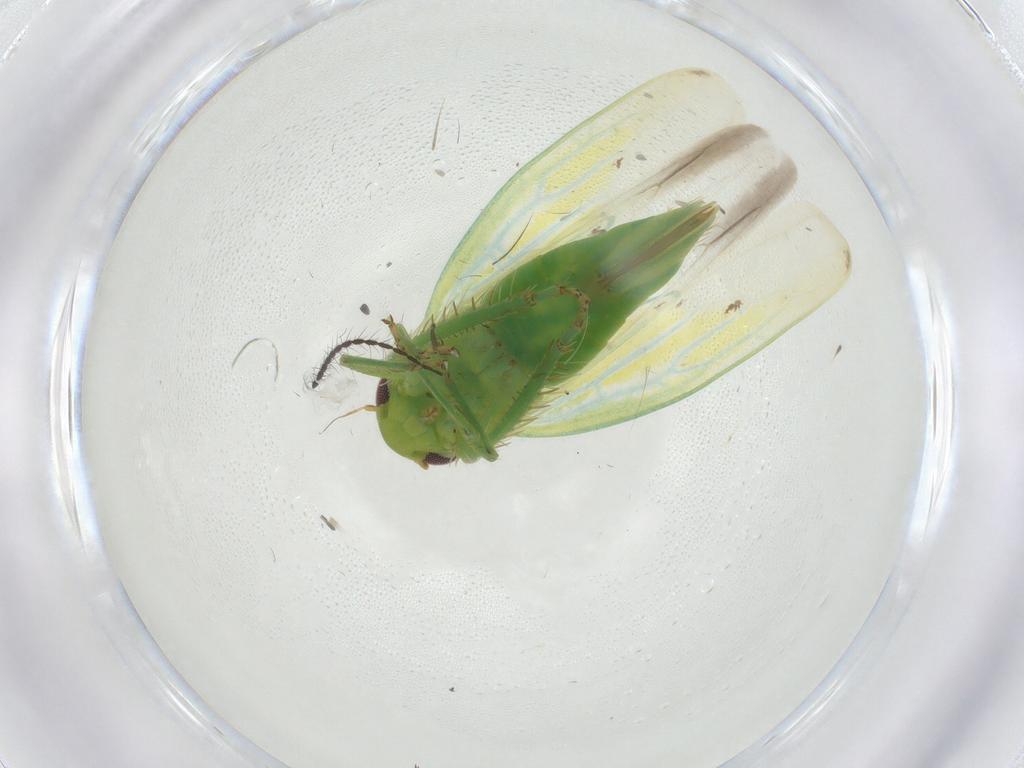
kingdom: Animalia
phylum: Arthropoda
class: Insecta
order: Hemiptera
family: Cicadellidae
